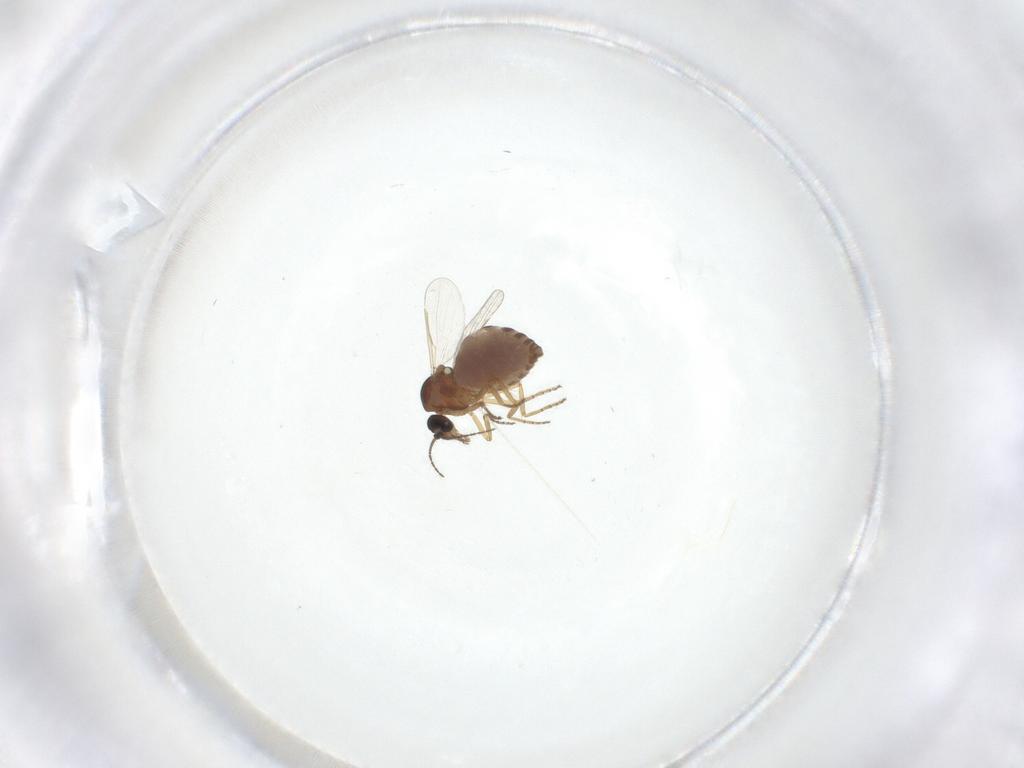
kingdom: Animalia
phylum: Arthropoda
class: Insecta
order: Diptera
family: Ceratopogonidae
